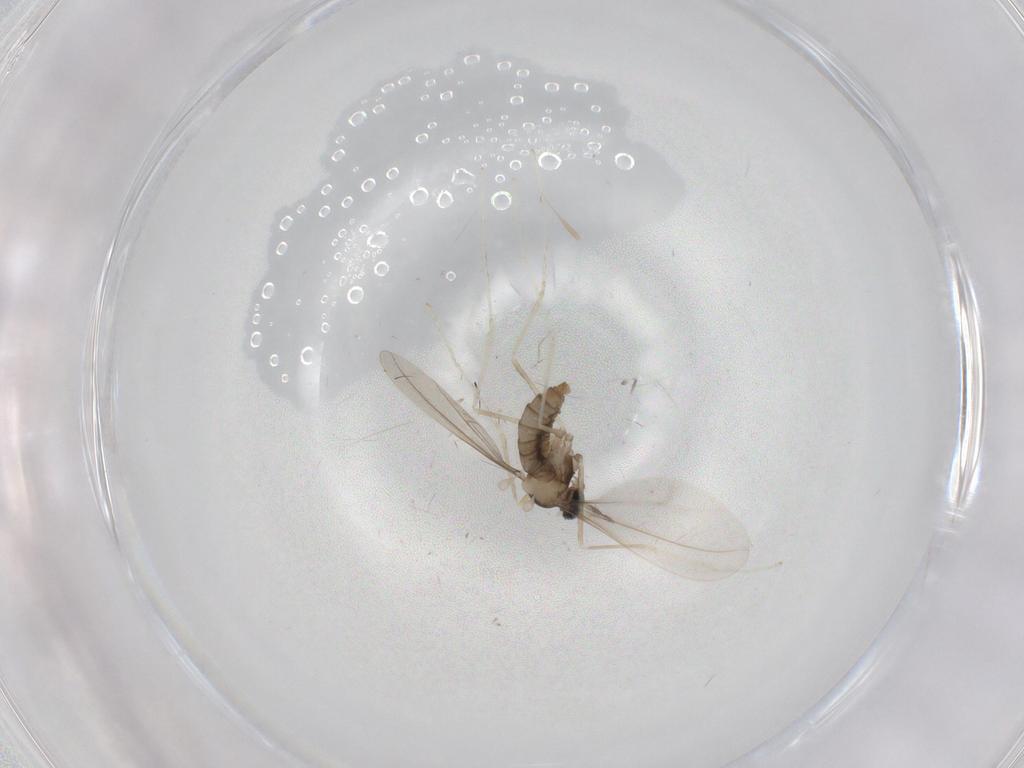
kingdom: Animalia
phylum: Arthropoda
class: Insecta
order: Diptera
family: Cecidomyiidae
